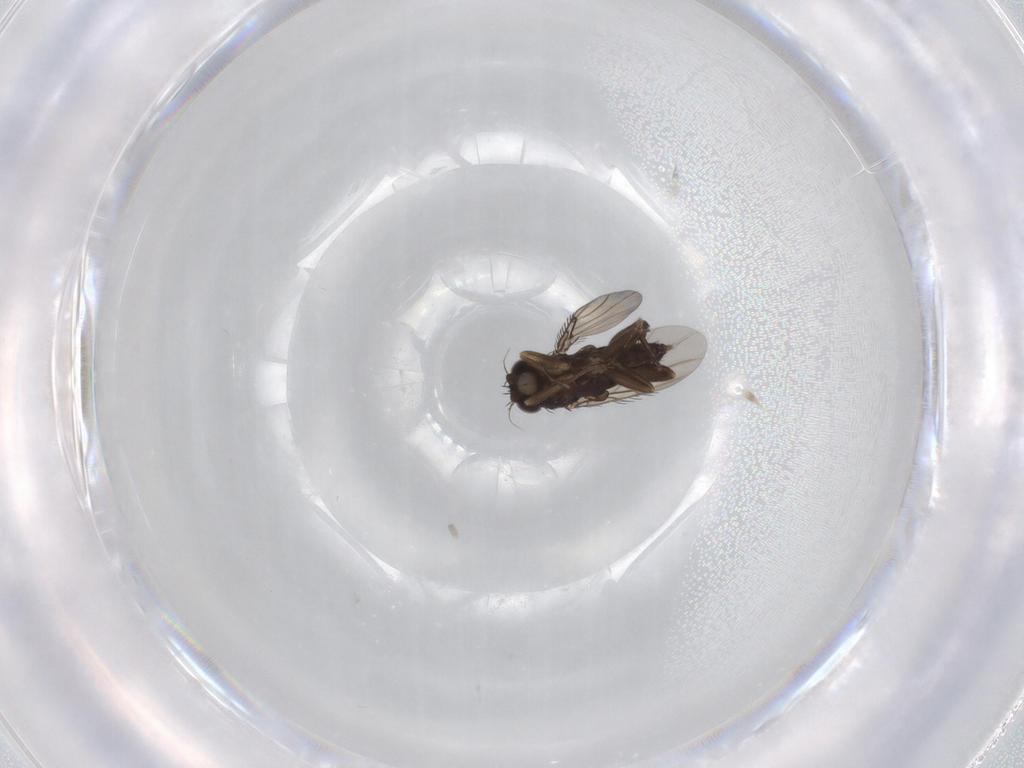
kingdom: Animalia
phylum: Arthropoda
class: Insecta
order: Diptera
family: Phoridae
